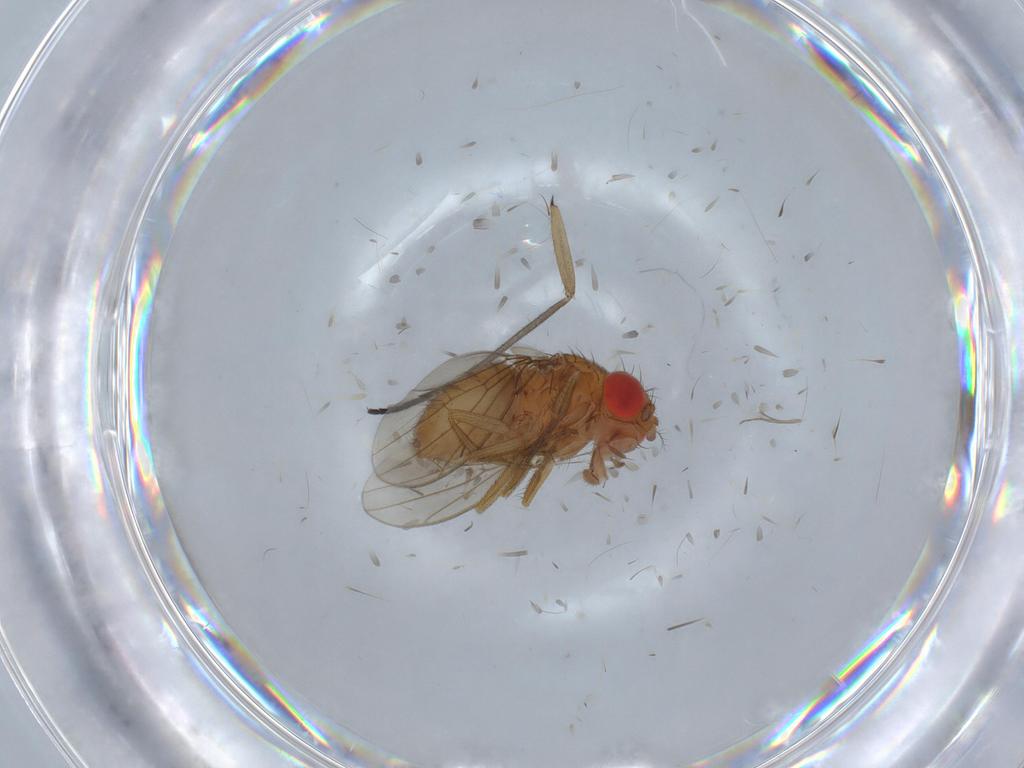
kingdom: Animalia
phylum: Arthropoda
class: Insecta
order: Diptera
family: Drosophilidae
